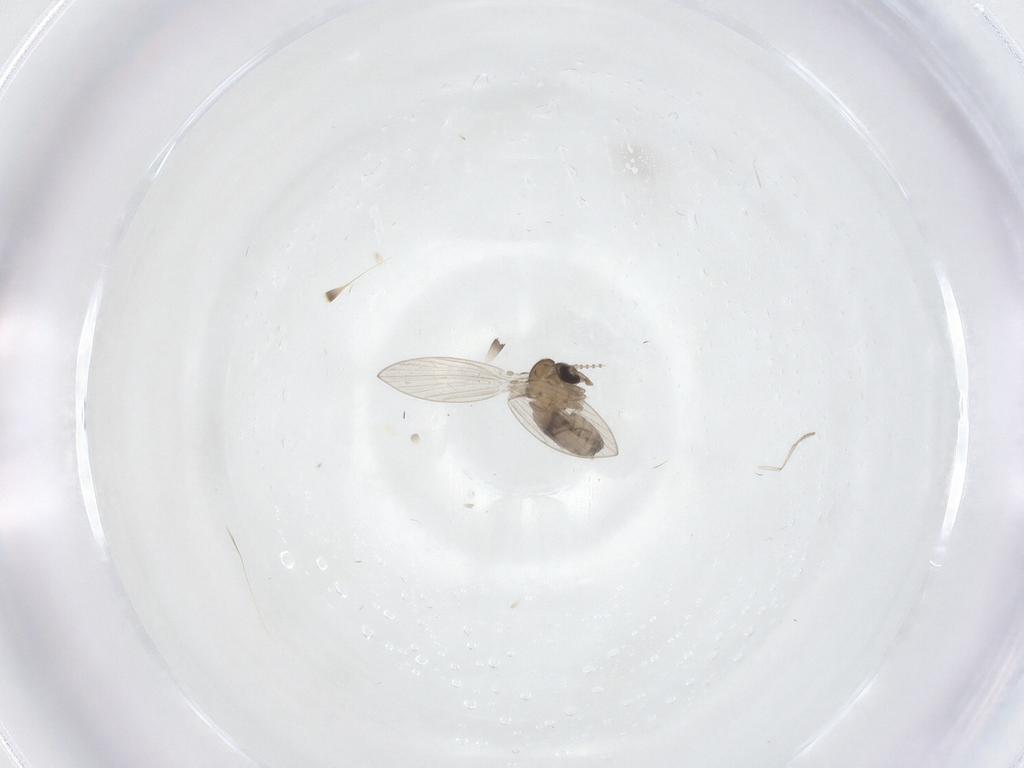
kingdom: Animalia
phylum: Arthropoda
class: Insecta
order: Diptera
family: Psychodidae
